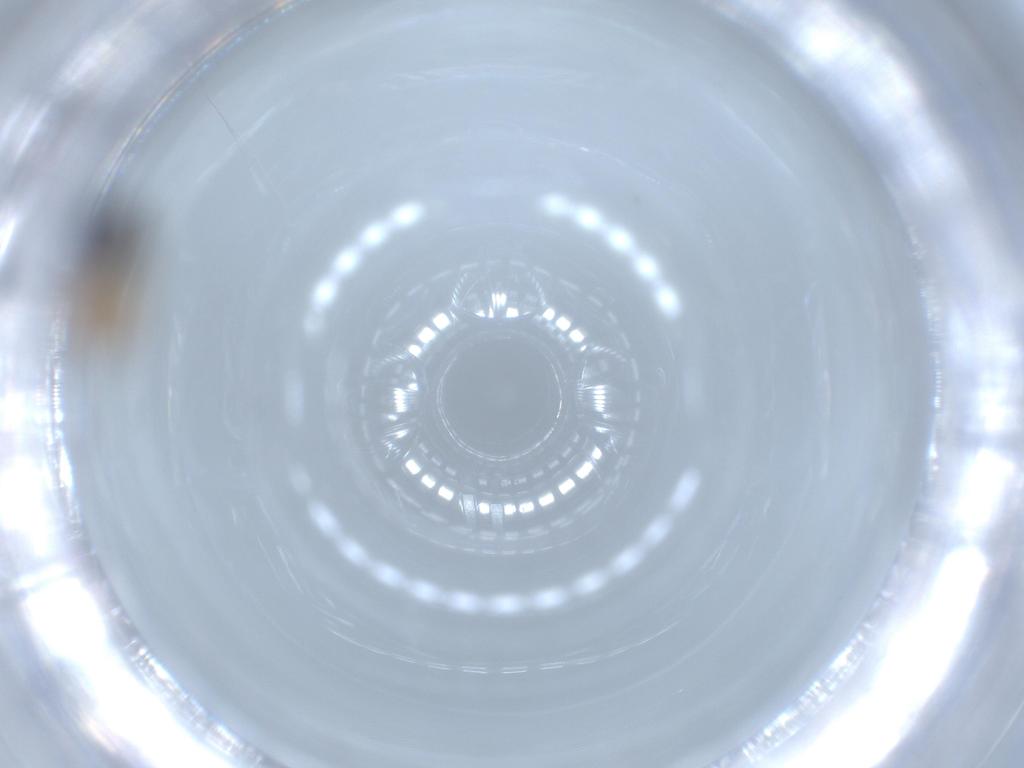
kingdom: Animalia
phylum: Arthropoda
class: Insecta
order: Hymenoptera
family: Scelionidae
